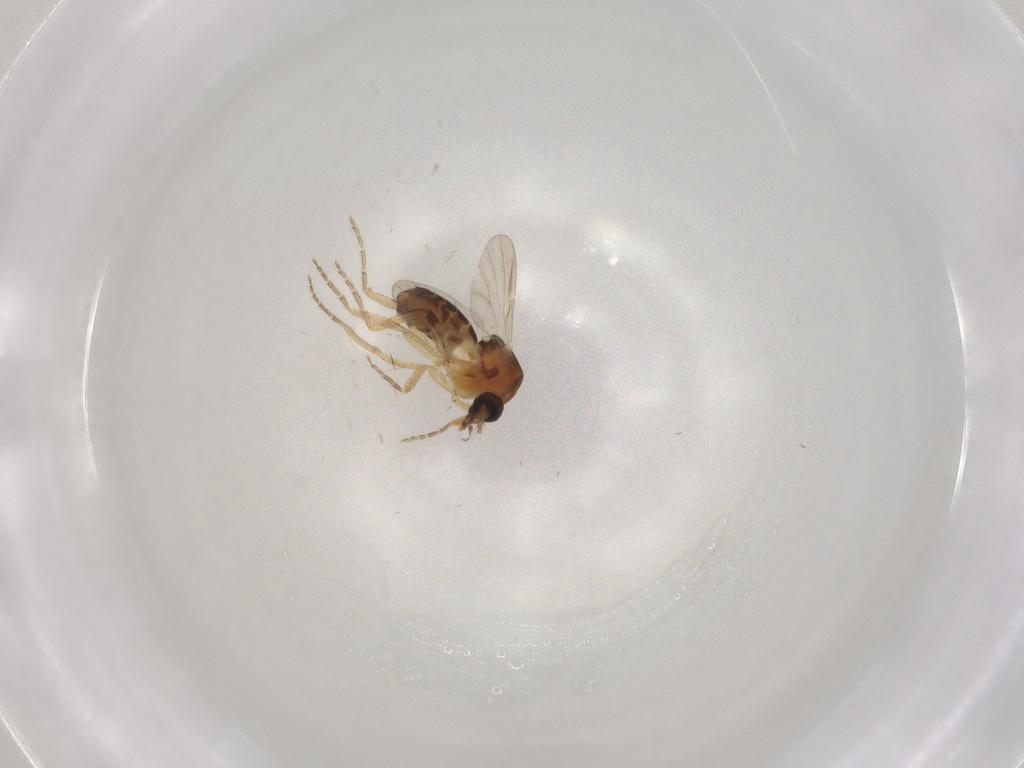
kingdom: Animalia
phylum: Arthropoda
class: Insecta
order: Diptera
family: Ceratopogonidae
